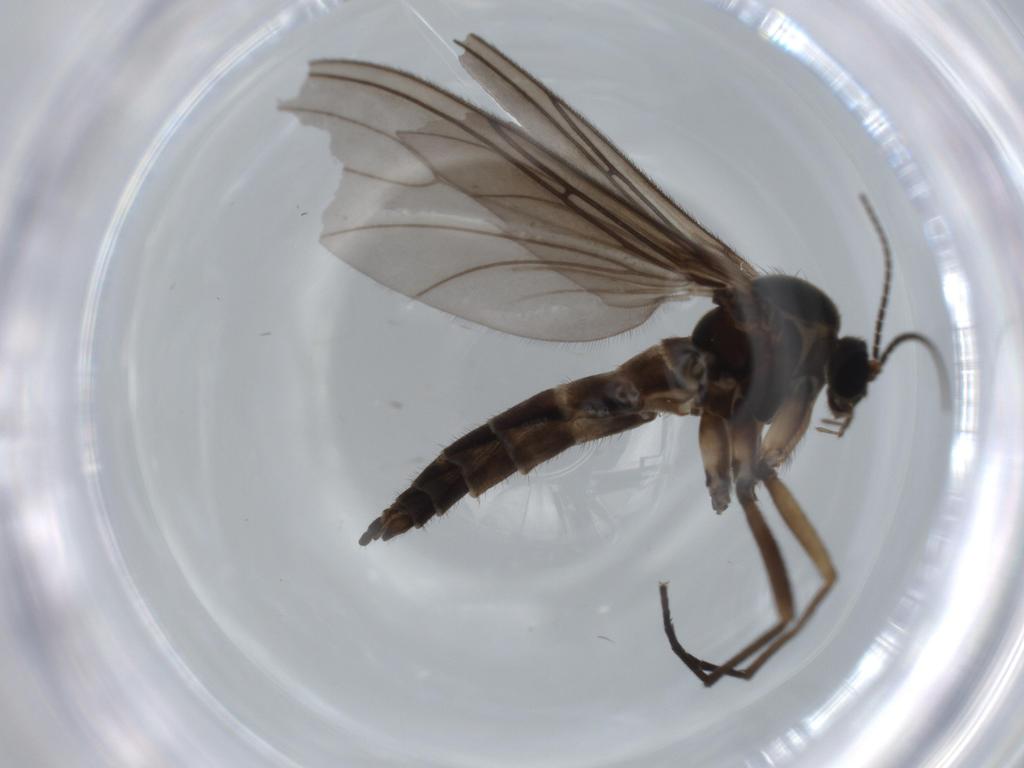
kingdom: Animalia
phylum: Arthropoda
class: Insecta
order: Diptera
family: Sciaridae
